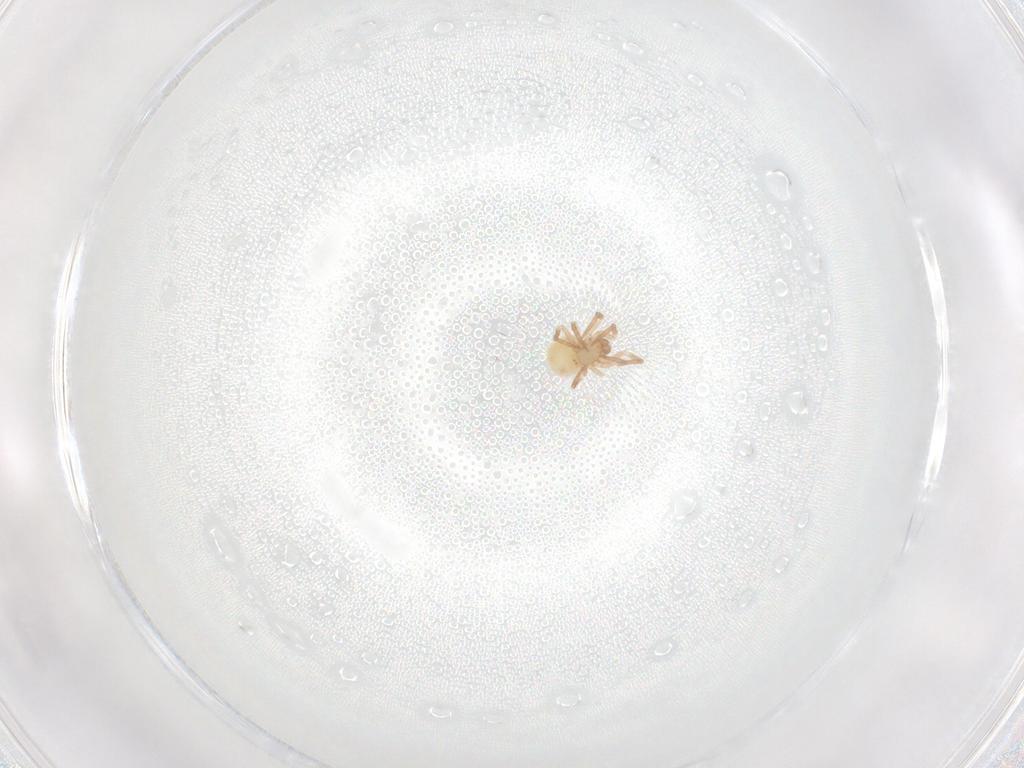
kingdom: Animalia
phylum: Arthropoda
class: Arachnida
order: Araneae
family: Symphytognathidae
